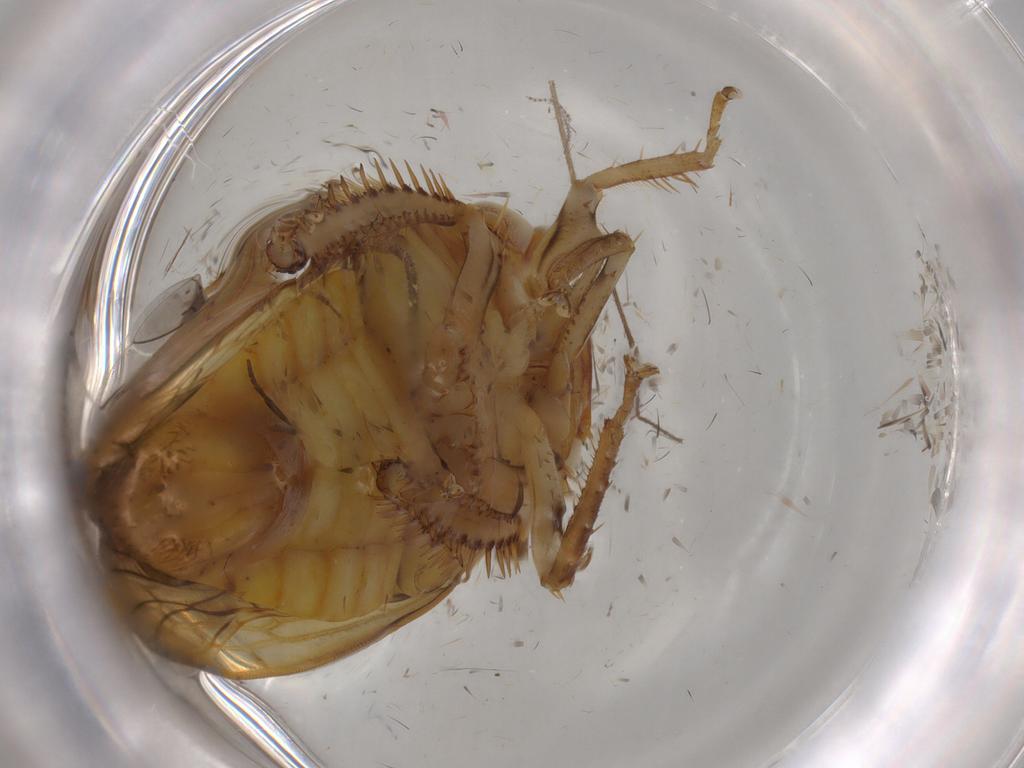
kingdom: Animalia
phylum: Arthropoda
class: Insecta
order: Hemiptera
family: Cicadellidae
